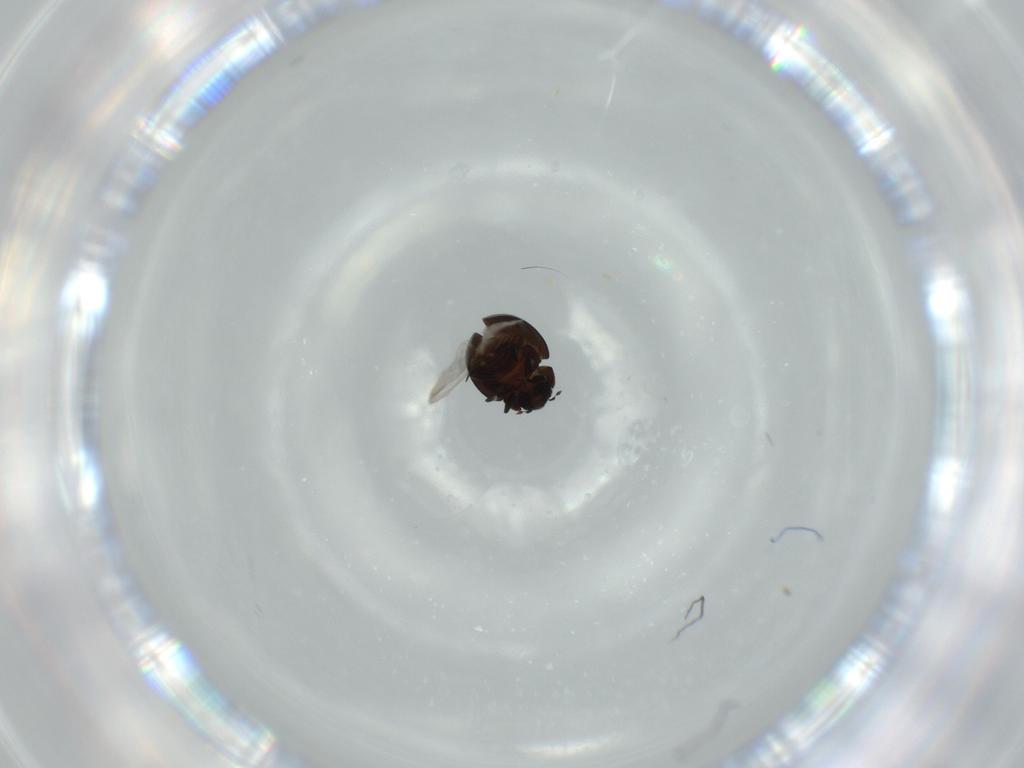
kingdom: Animalia
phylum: Arthropoda
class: Insecta
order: Coleoptera
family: Coccinellidae
